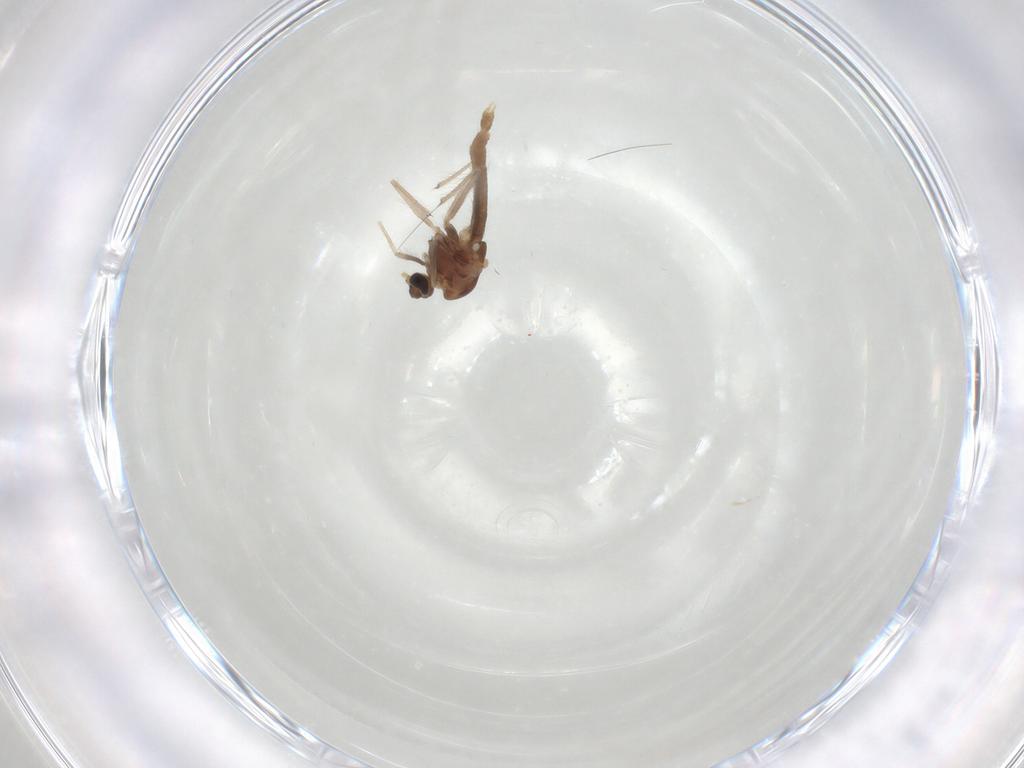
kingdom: Animalia
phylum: Arthropoda
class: Insecta
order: Diptera
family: Chironomidae
